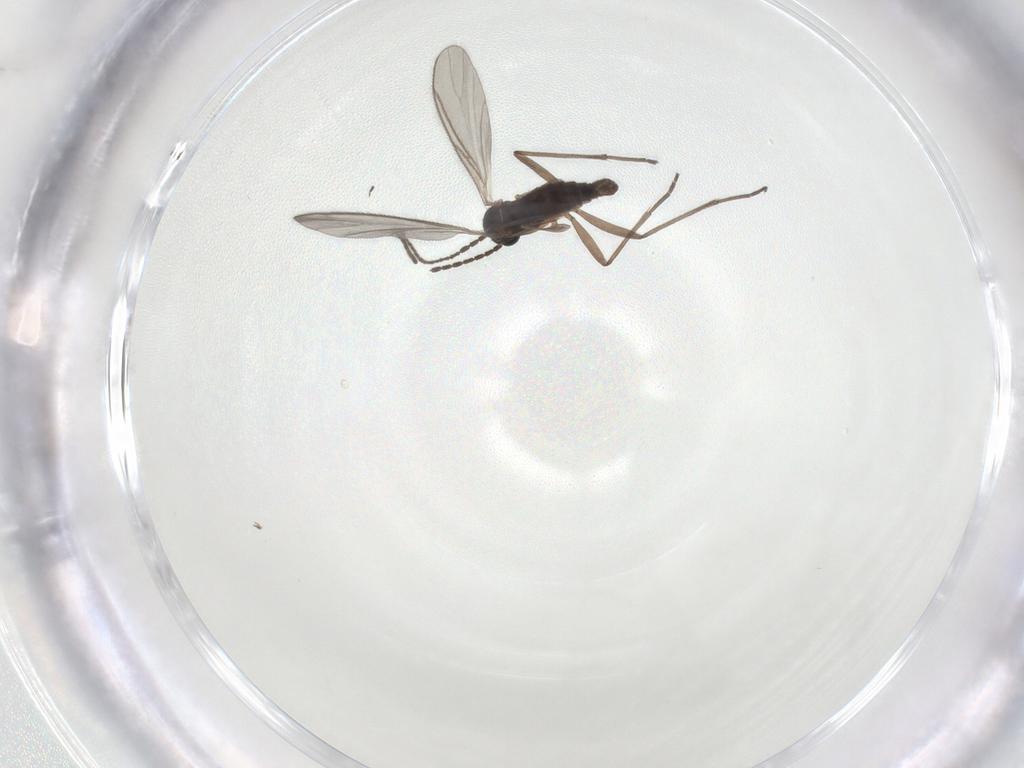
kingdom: Animalia
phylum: Arthropoda
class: Insecta
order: Diptera
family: Sciaridae
